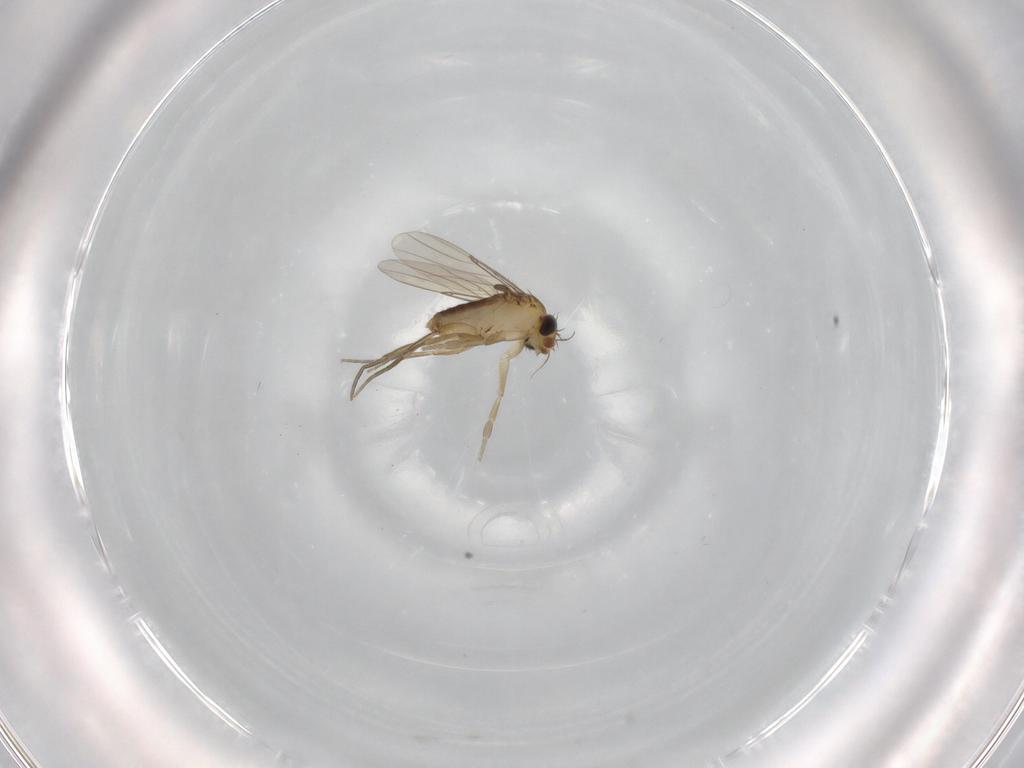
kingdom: Animalia
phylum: Arthropoda
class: Insecta
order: Diptera
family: Phoridae
